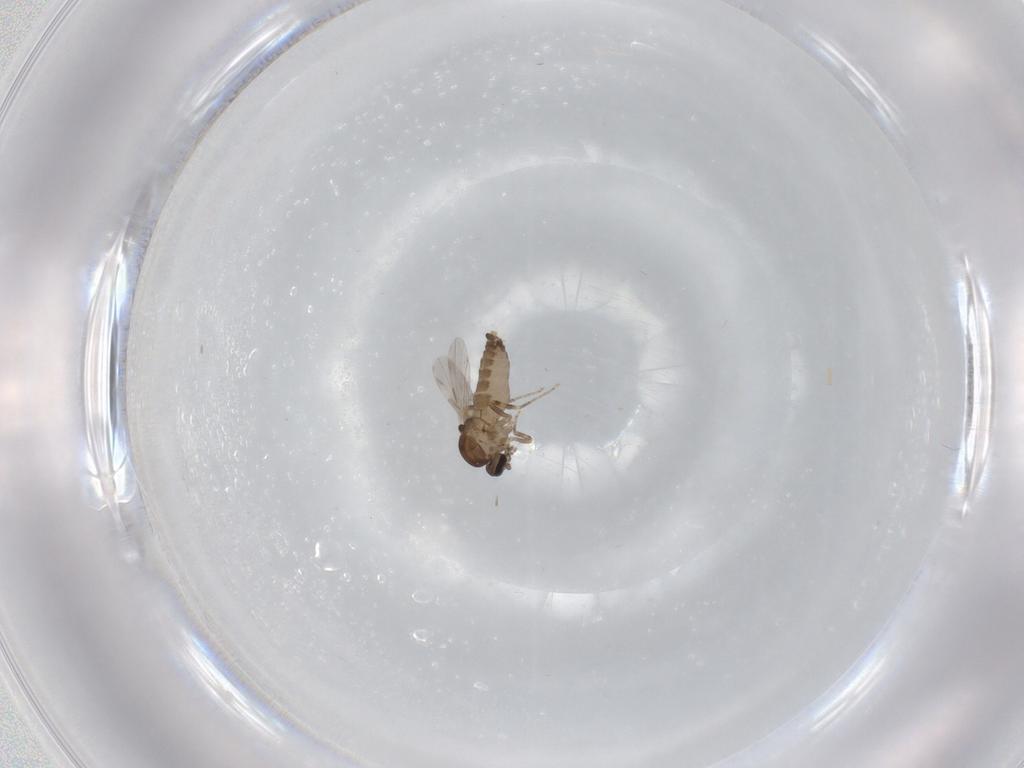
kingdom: Animalia
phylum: Arthropoda
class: Insecta
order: Diptera
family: Ceratopogonidae
